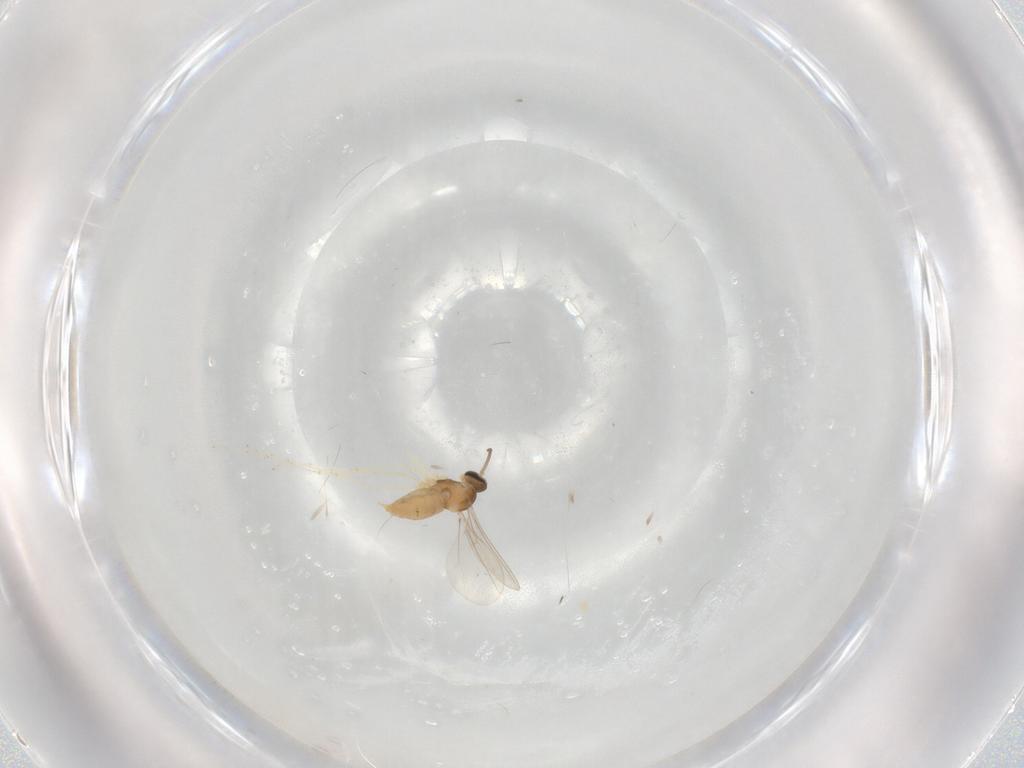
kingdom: Animalia
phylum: Arthropoda
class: Insecta
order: Diptera
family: Cecidomyiidae
